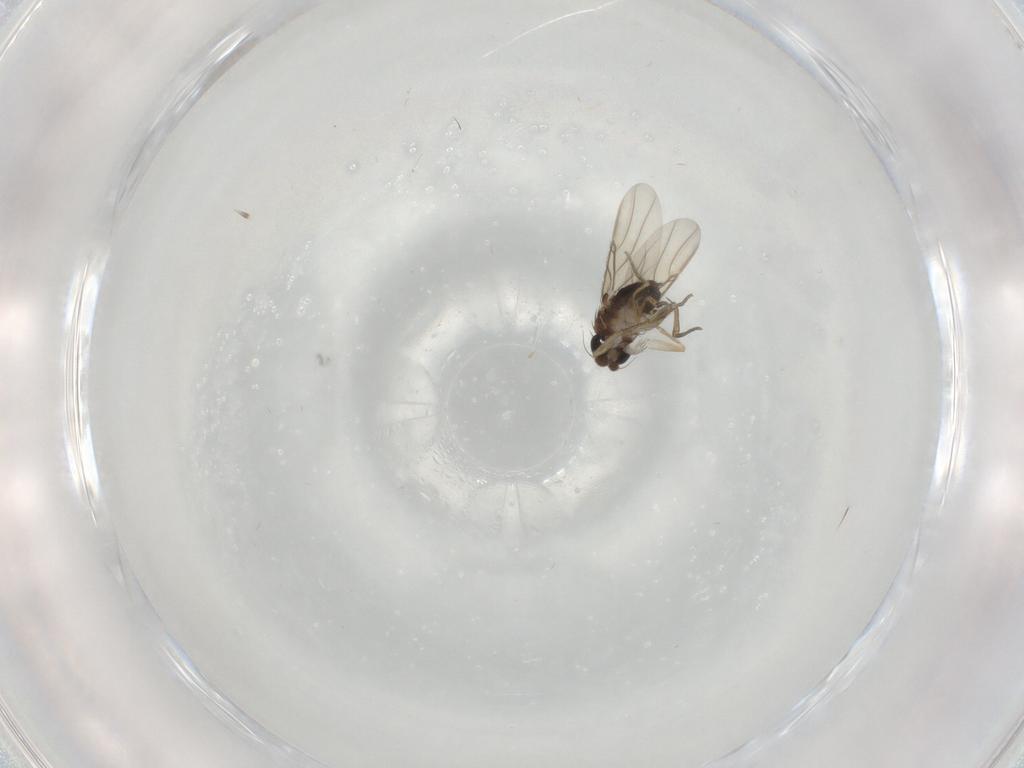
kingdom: Animalia
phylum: Arthropoda
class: Insecta
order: Diptera
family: Phoridae
